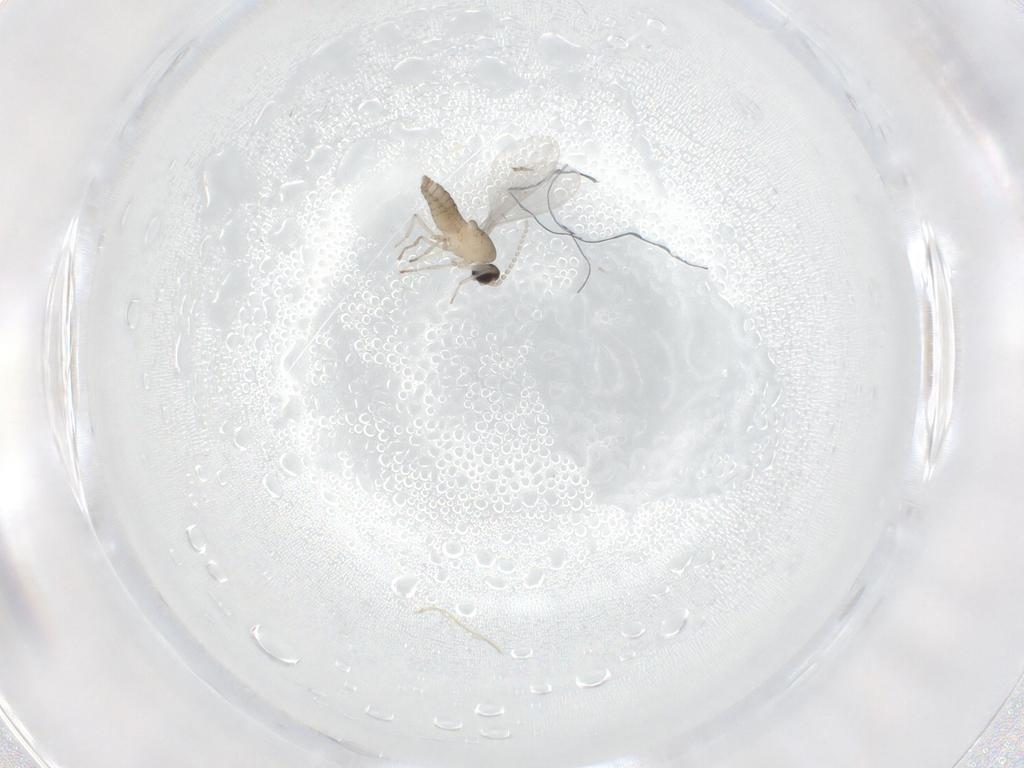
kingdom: Animalia
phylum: Arthropoda
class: Insecta
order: Diptera
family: Cecidomyiidae
